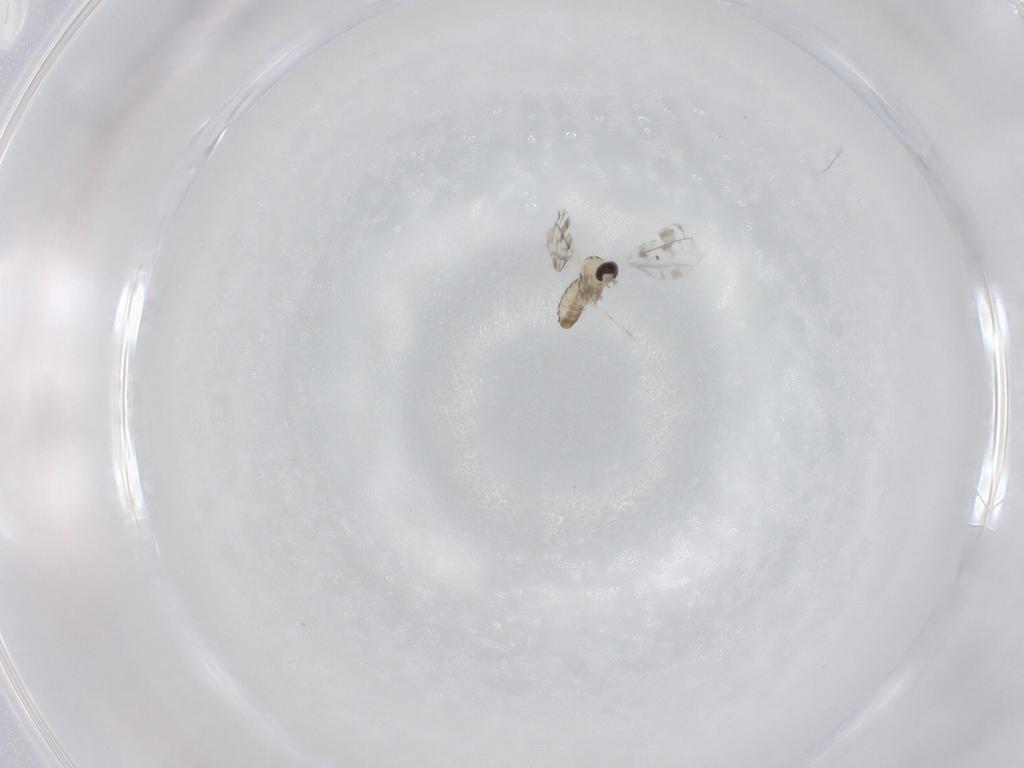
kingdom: Animalia
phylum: Arthropoda
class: Insecta
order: Diptera
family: Cecidomyiidae
